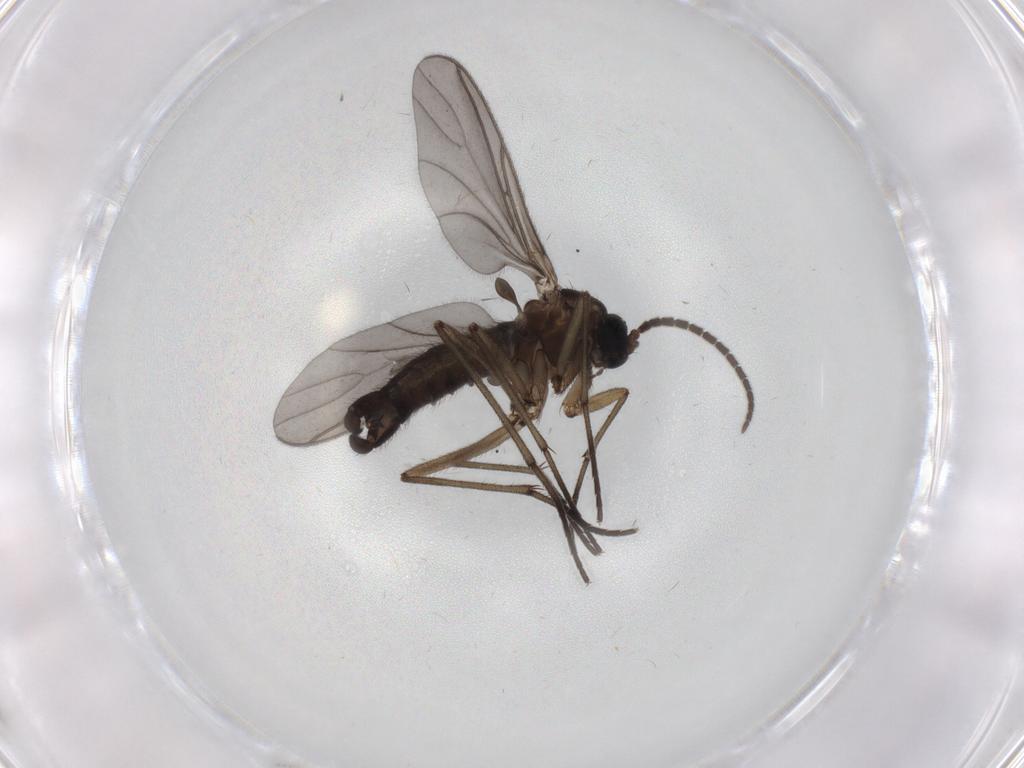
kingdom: Animalia
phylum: Arthropoda
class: Insecta
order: Diptera
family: Sciaridae
